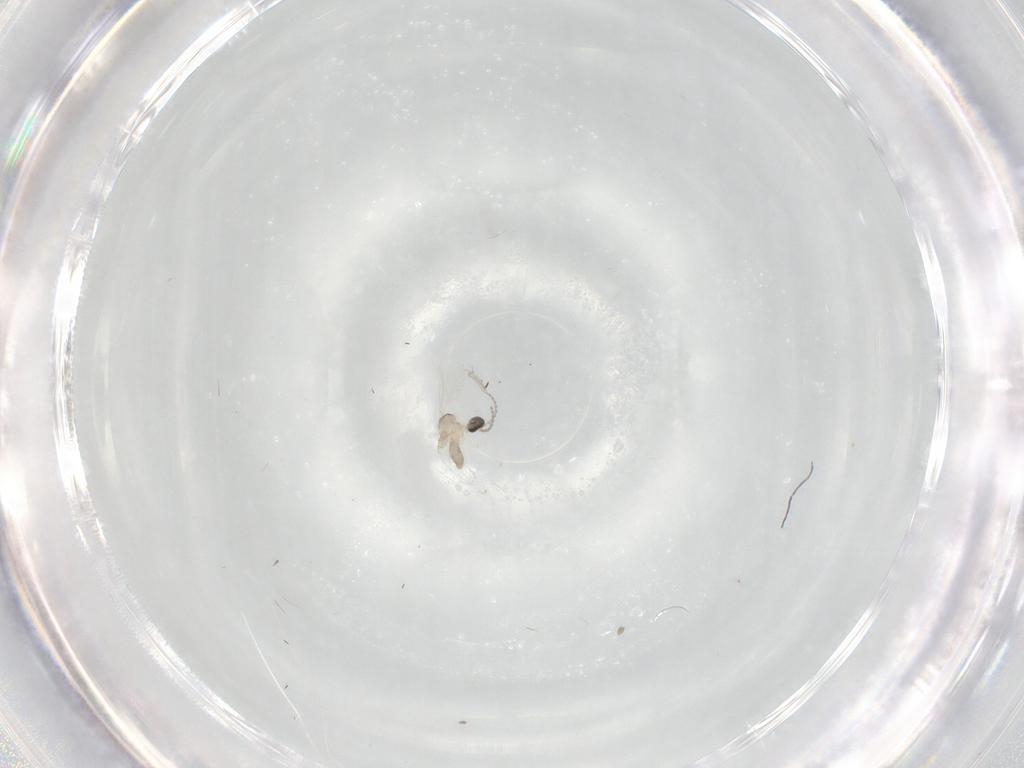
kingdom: Animalia
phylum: Arthropoda
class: Insecta
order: Diptera
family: Cecidomyiidae
